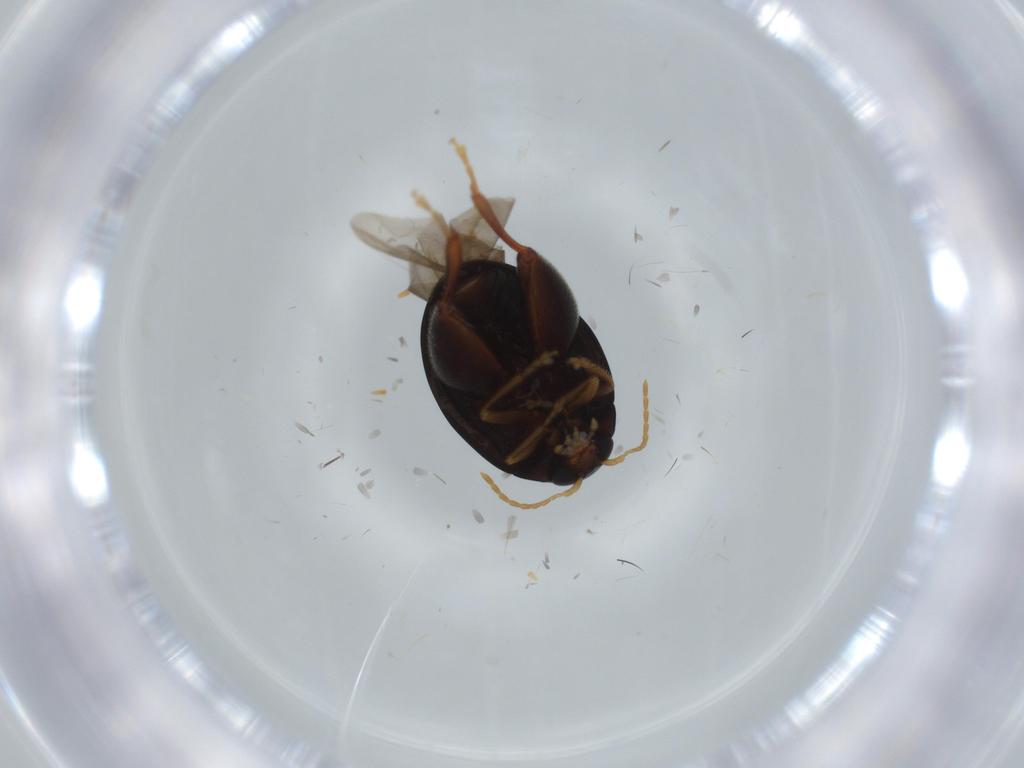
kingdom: Animalia
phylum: Arthropoda
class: Insecta
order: Coleoptera
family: Chrysomelidae
